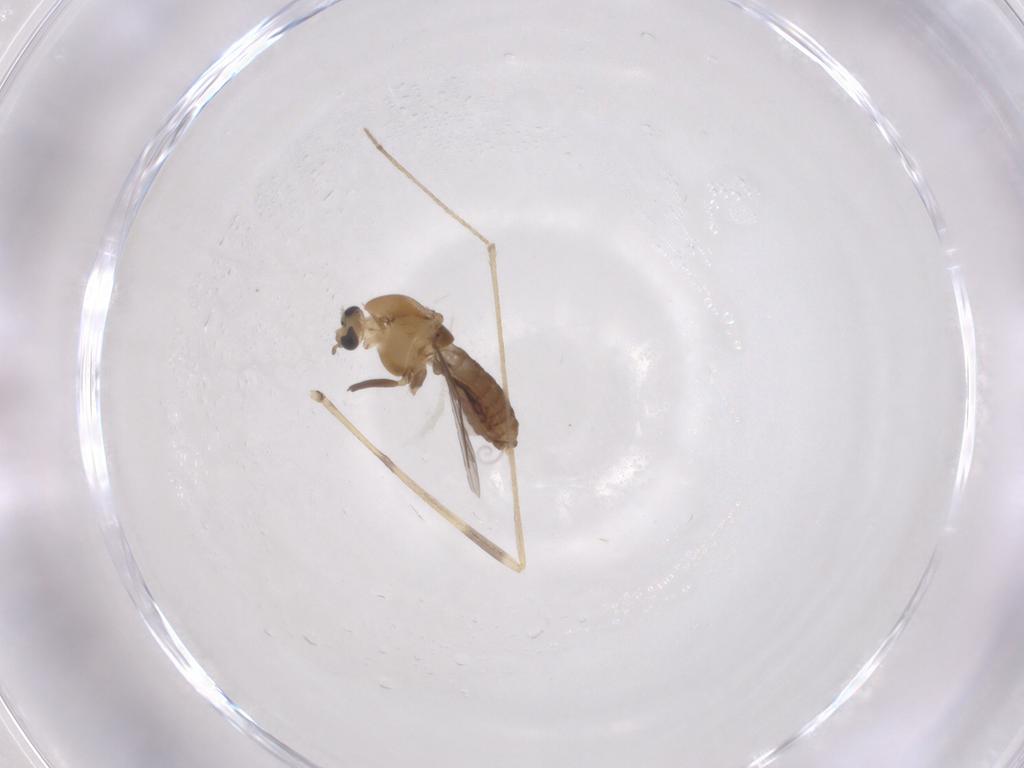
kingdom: Animalia
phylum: Arthropoda
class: Insecta
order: Diptera
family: Chironomidae
